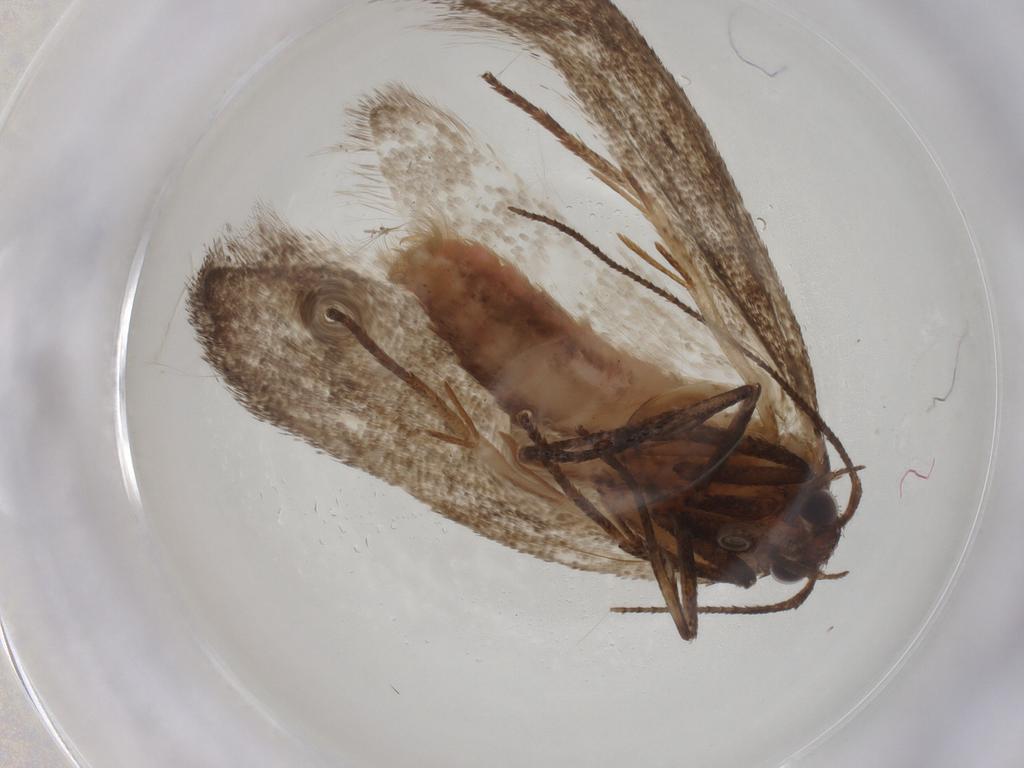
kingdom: Animalia
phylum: Arthropoda
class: Insecta
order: Lepidoptera
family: Cosmopterigidae
